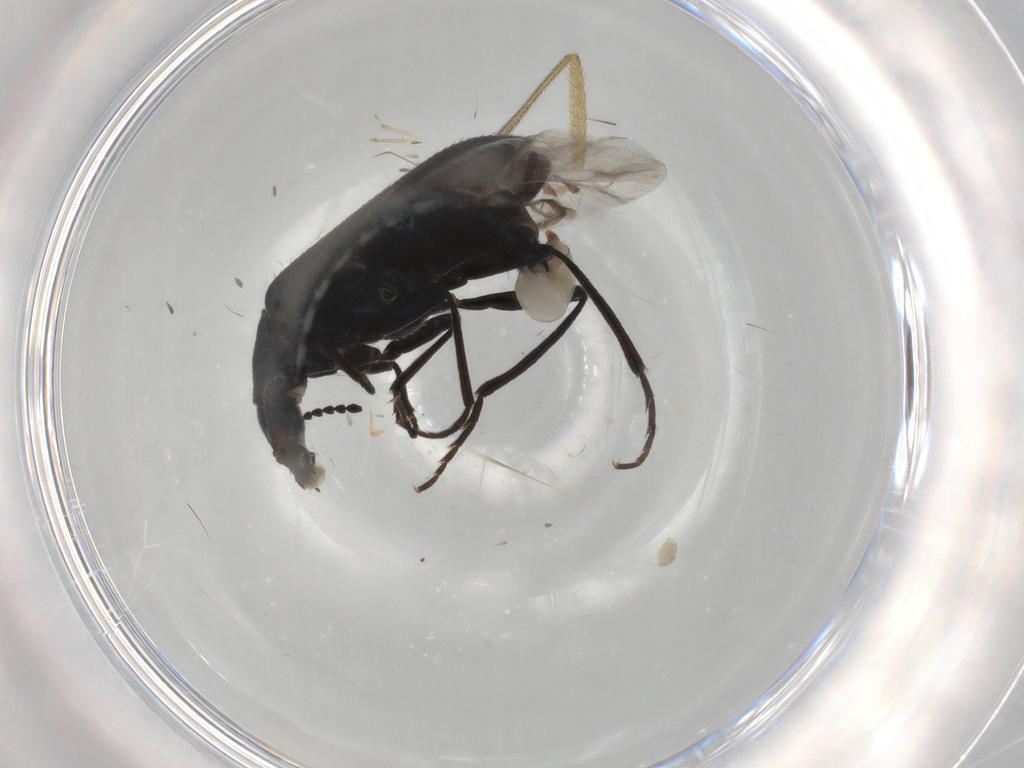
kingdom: Animalia
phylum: Arthropoda
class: Insecta
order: Coleoptera
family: Melyridae
